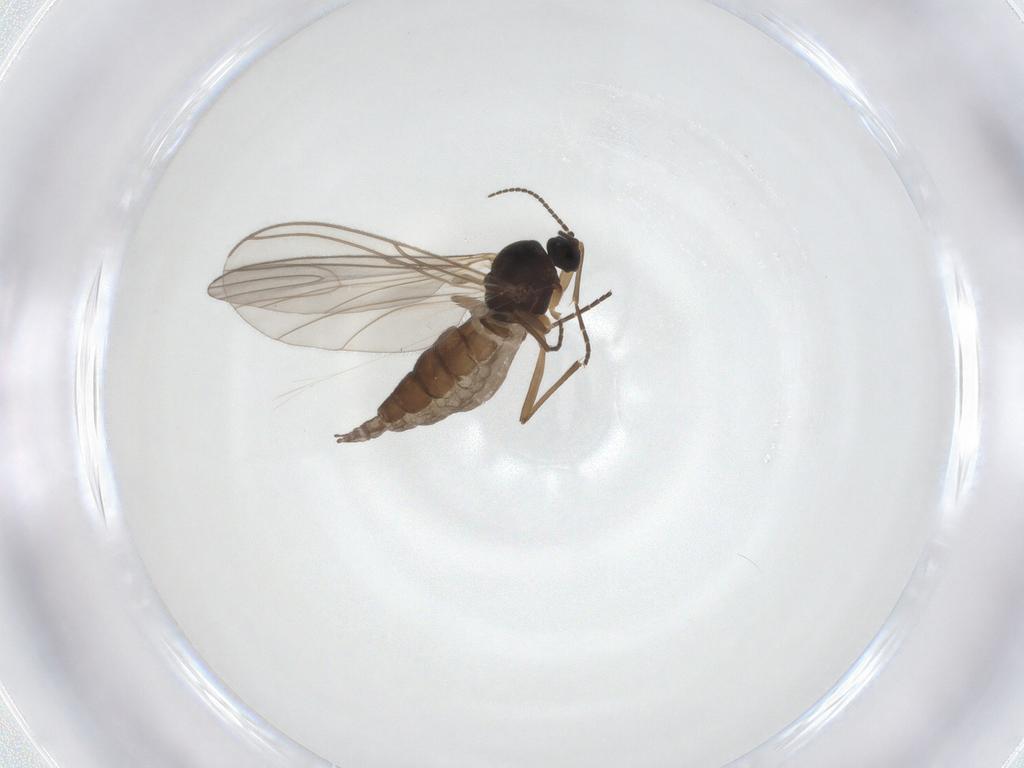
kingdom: Animalia
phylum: Arthropoda
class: Insecta
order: Diptera
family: Sciaridae
